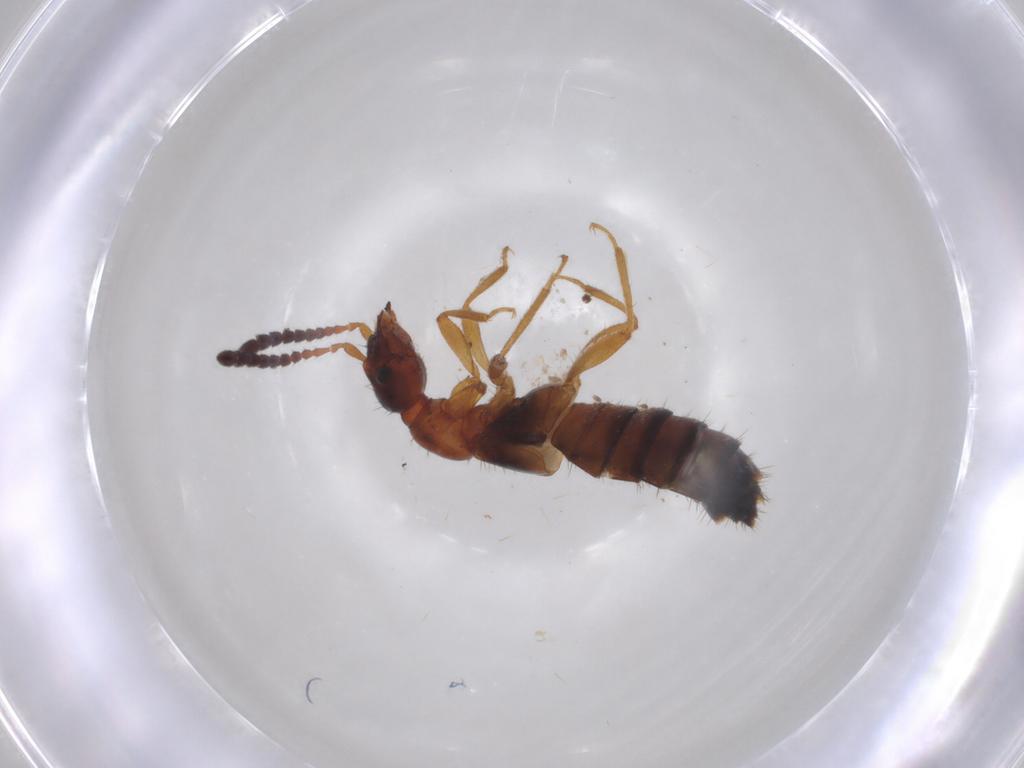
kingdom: Animalia
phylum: Arthropoda
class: Insecta
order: Coleoptera
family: Staphylinidae
